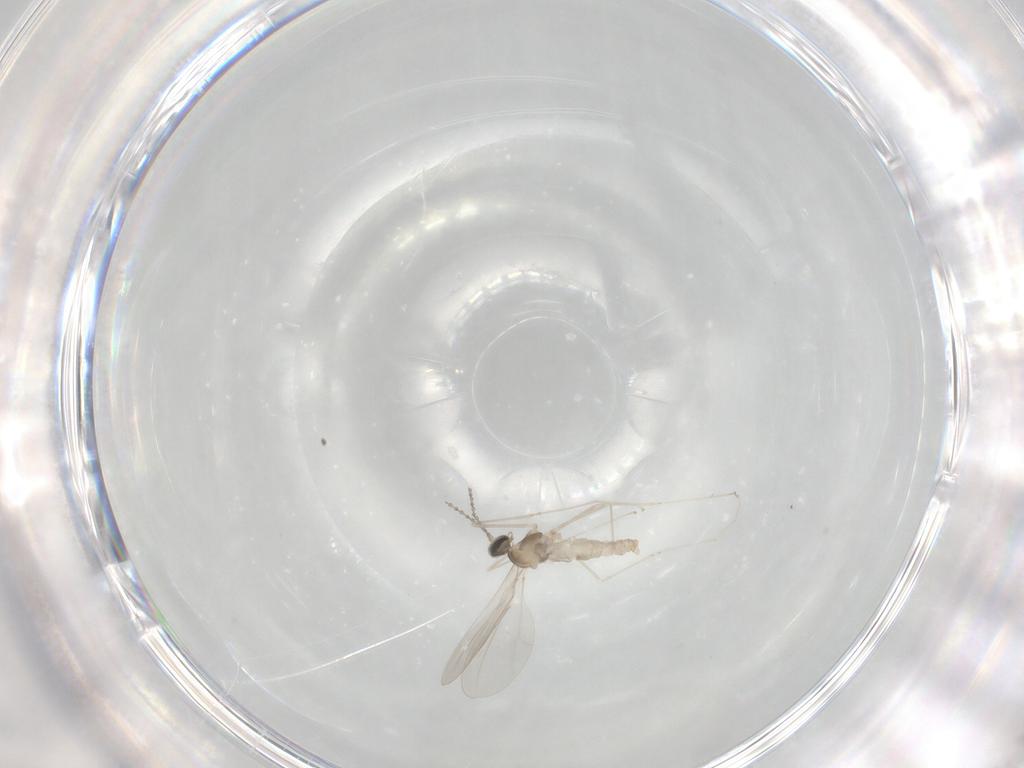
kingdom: Animalia
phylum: Arthropoda
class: Insecta
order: Diptera
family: Cecidomyiidae
